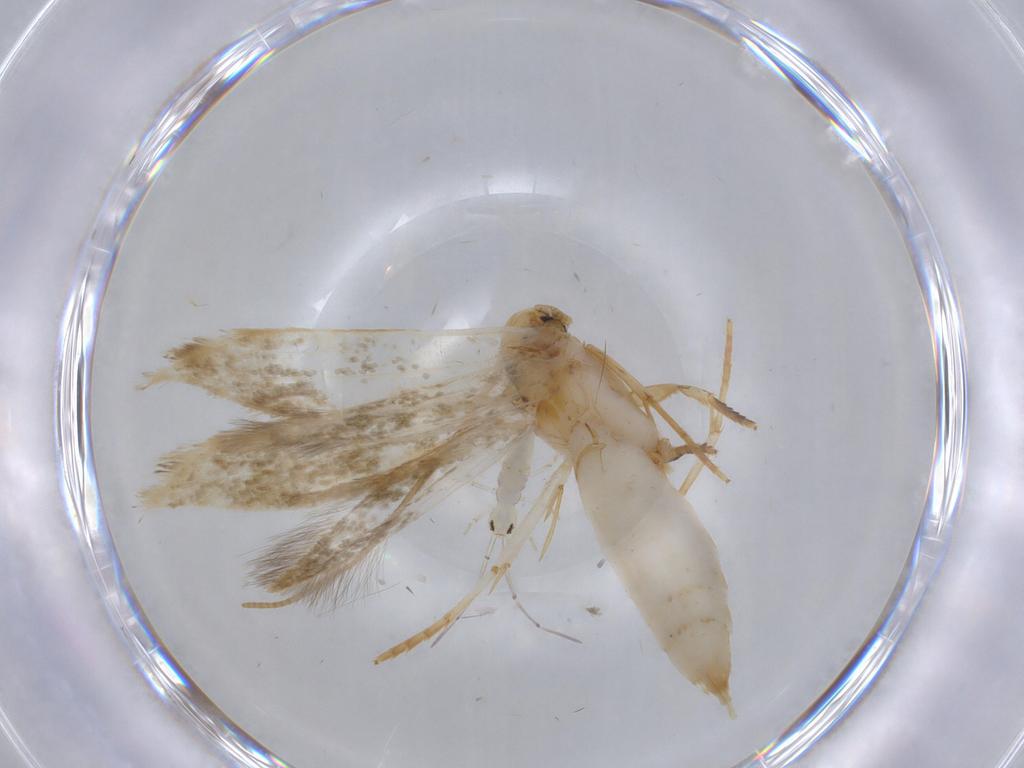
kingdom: Animalia
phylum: Arthropoda
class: Insecta
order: Lepidoptera
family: Tineidae
